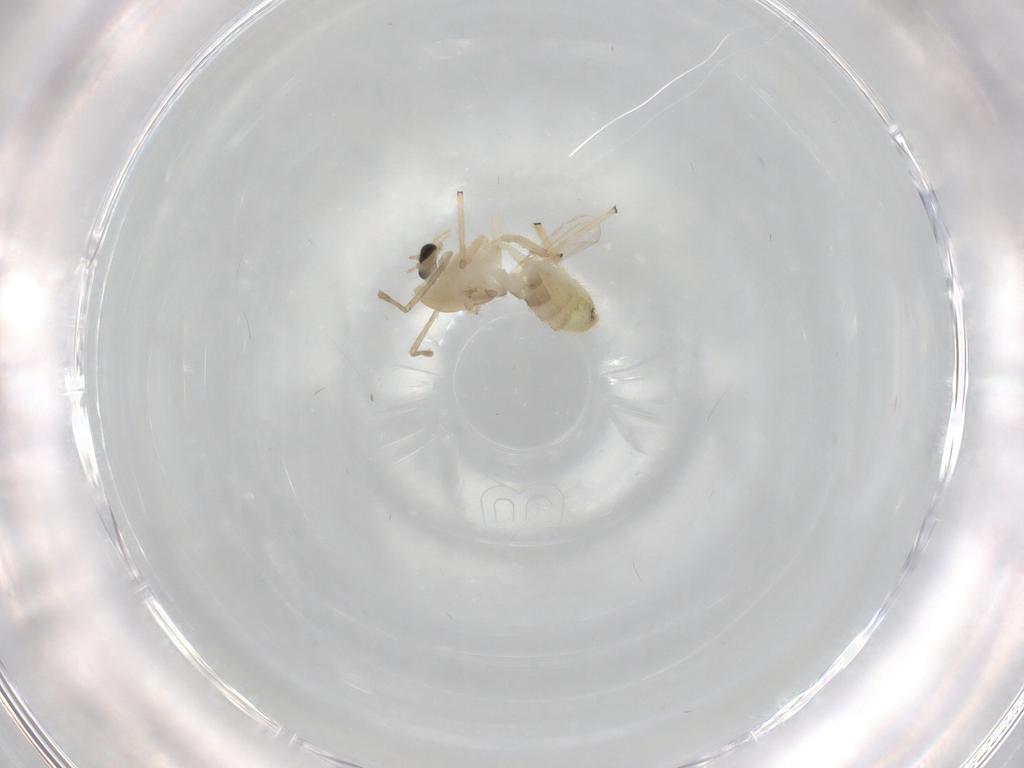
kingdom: Animalia
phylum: Arthropoda
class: Insecta
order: Diptera
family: Chironomidae
